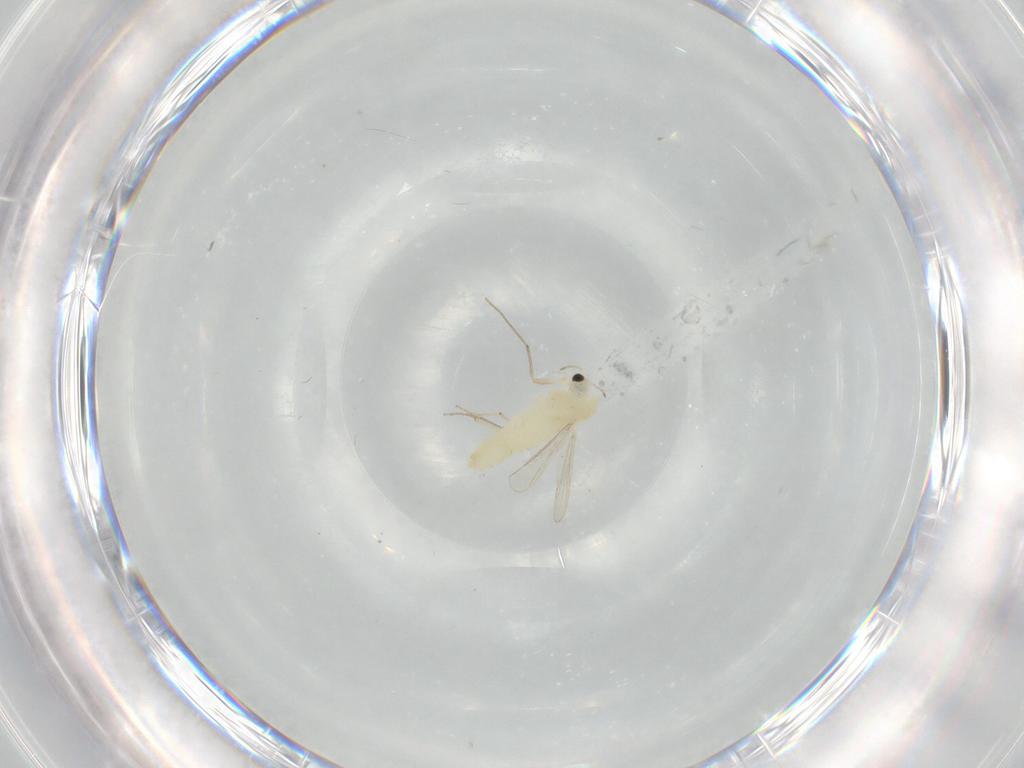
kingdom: Animalia
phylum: Arthropoda
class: Insecta
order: Diptera
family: Chironomidae
